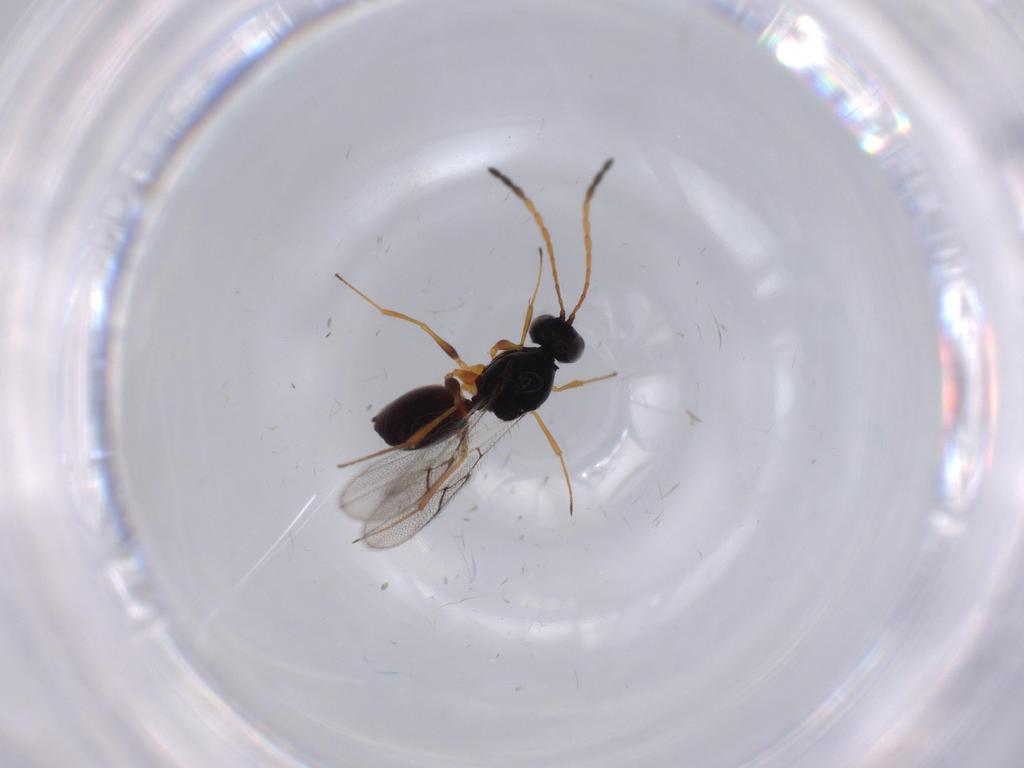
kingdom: Animalia
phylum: Arthropoda
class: Insecta
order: Hymenoptera
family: Figitidae
